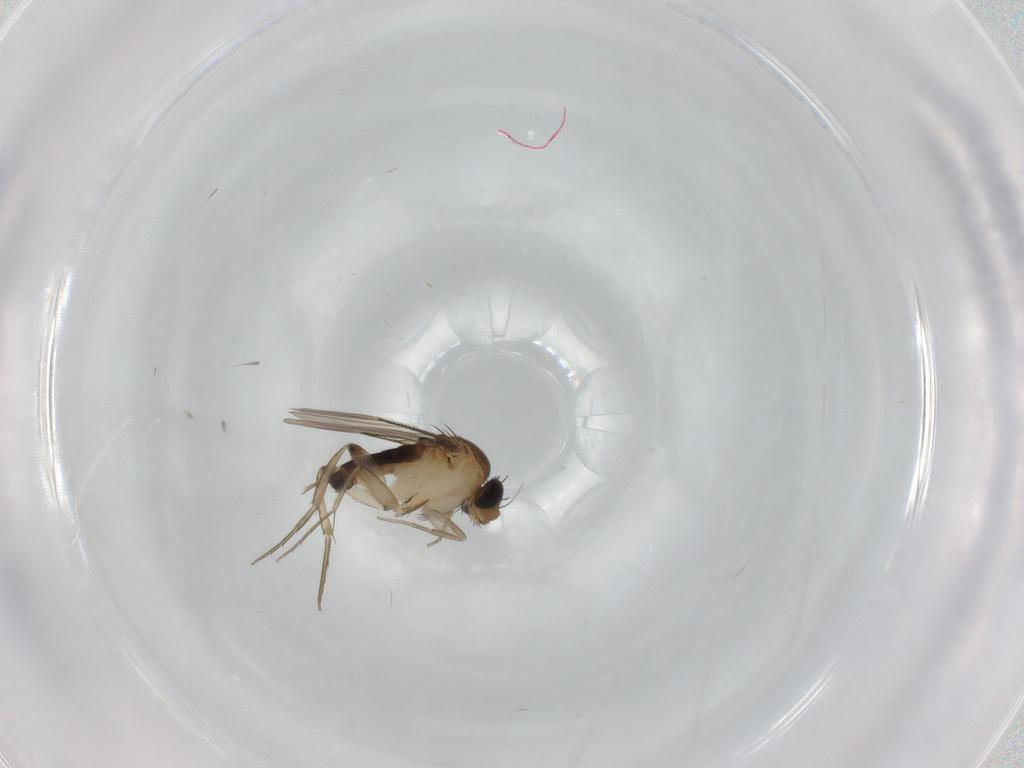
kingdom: Animalia
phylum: Arthropoda
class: Insecta
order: Diptera
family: Phoridae
